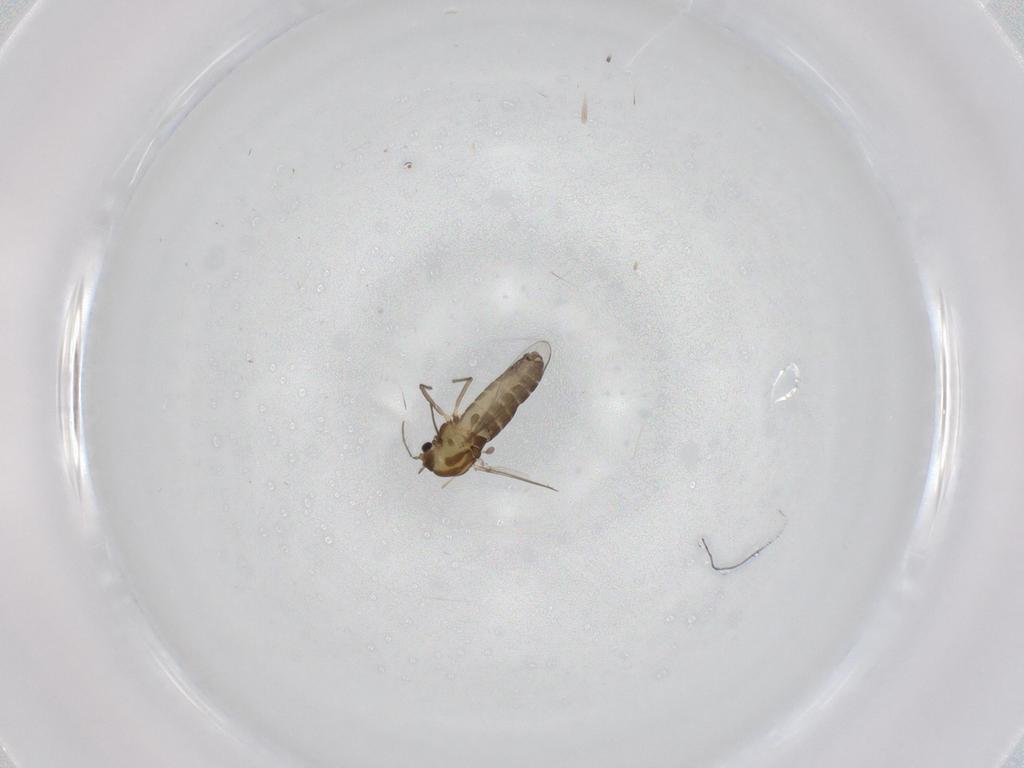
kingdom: Animalia
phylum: Arthropoda
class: Insecta
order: Diptera
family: Chironomidae
